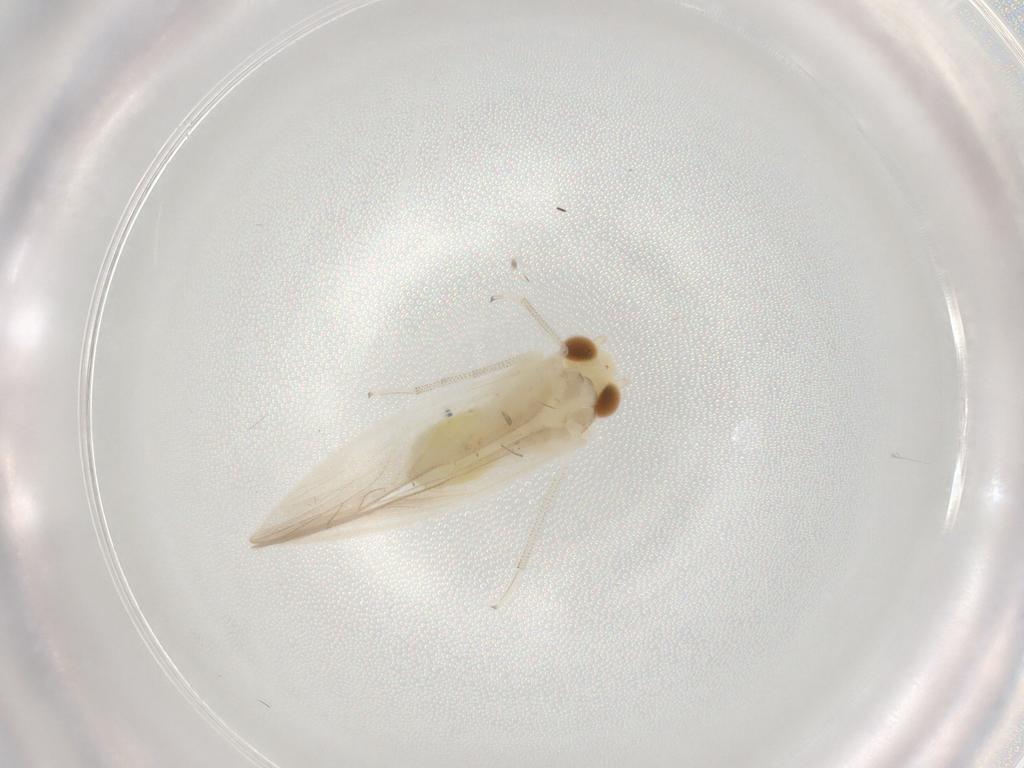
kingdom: Animalia
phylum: Arthropoda
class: Insecta
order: Psocodea
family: Caeciliusidae
